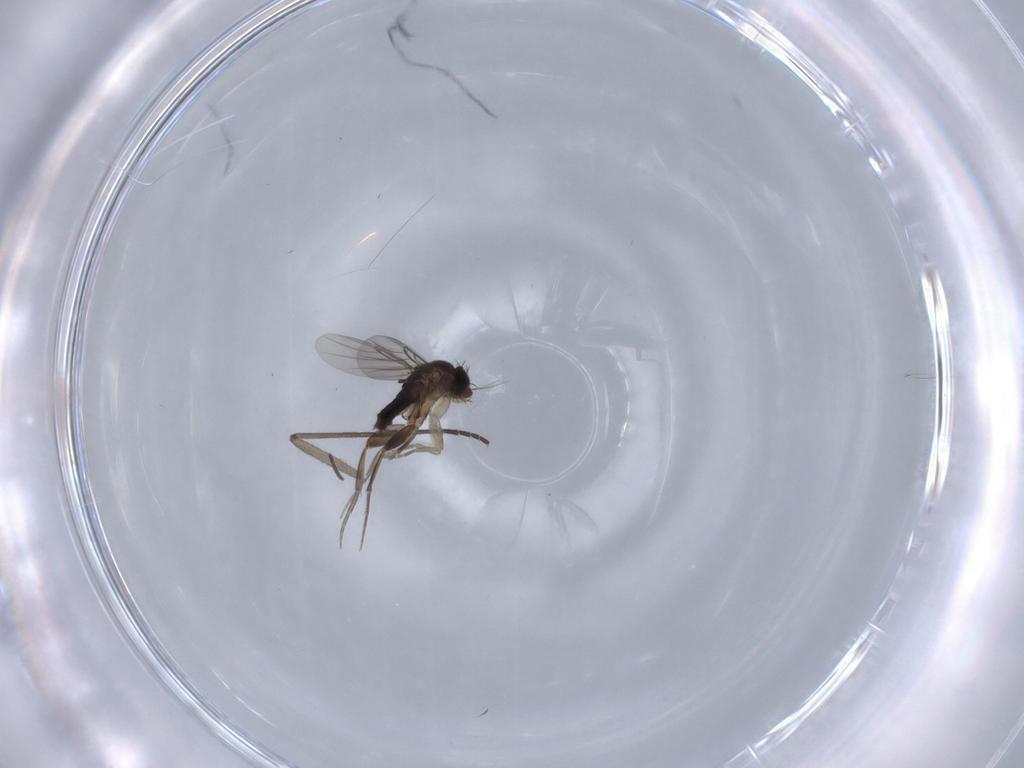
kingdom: Animalia
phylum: Arthropoda
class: Insecta
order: Diptera
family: Phoridae
